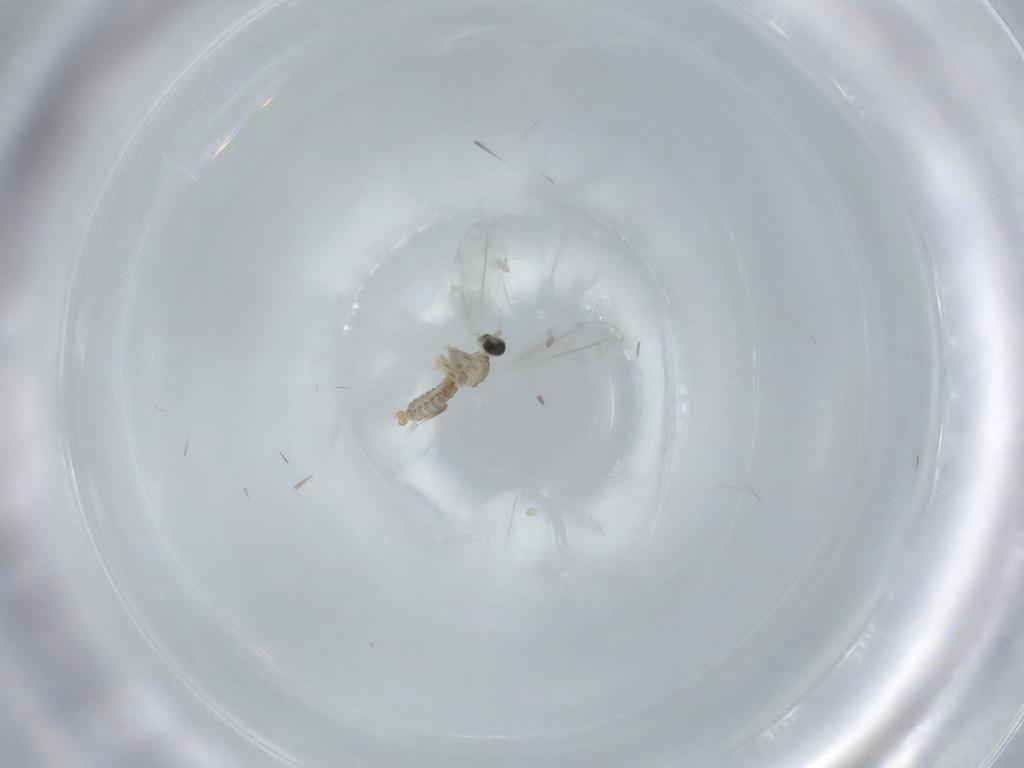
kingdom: Animalia
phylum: Arthropoda
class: Insecta
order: Diptera
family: Cecidomyiidae
